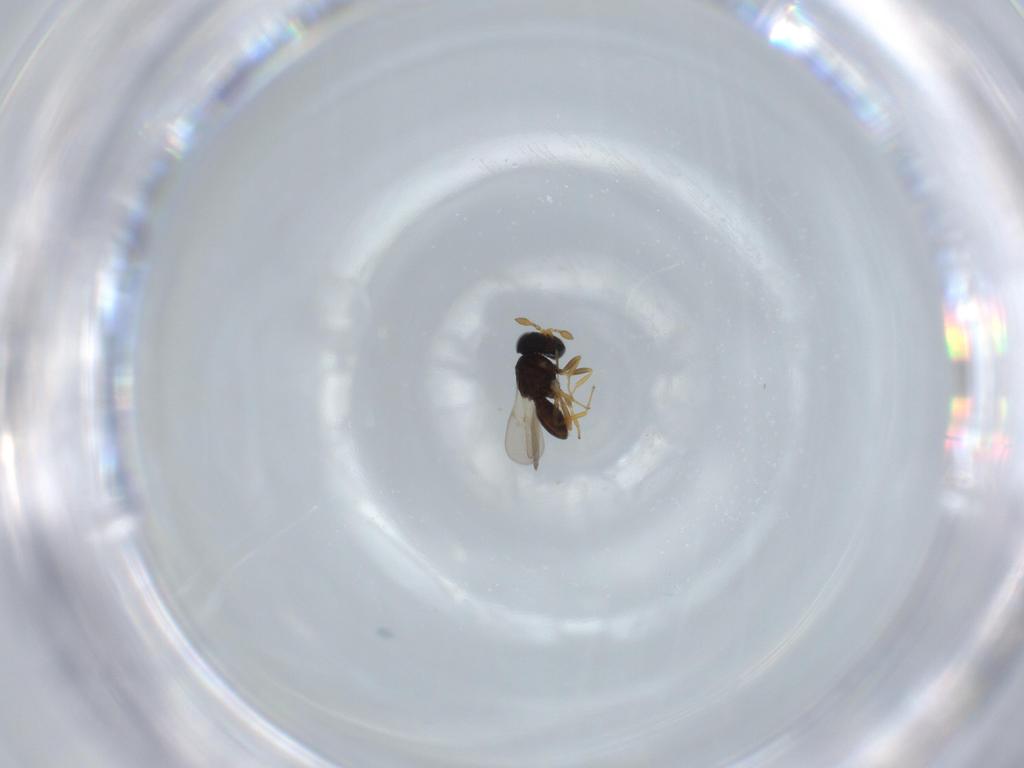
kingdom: Animalia
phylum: Arthropoda
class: Insecta
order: Hymenoptera
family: Scelionidae
